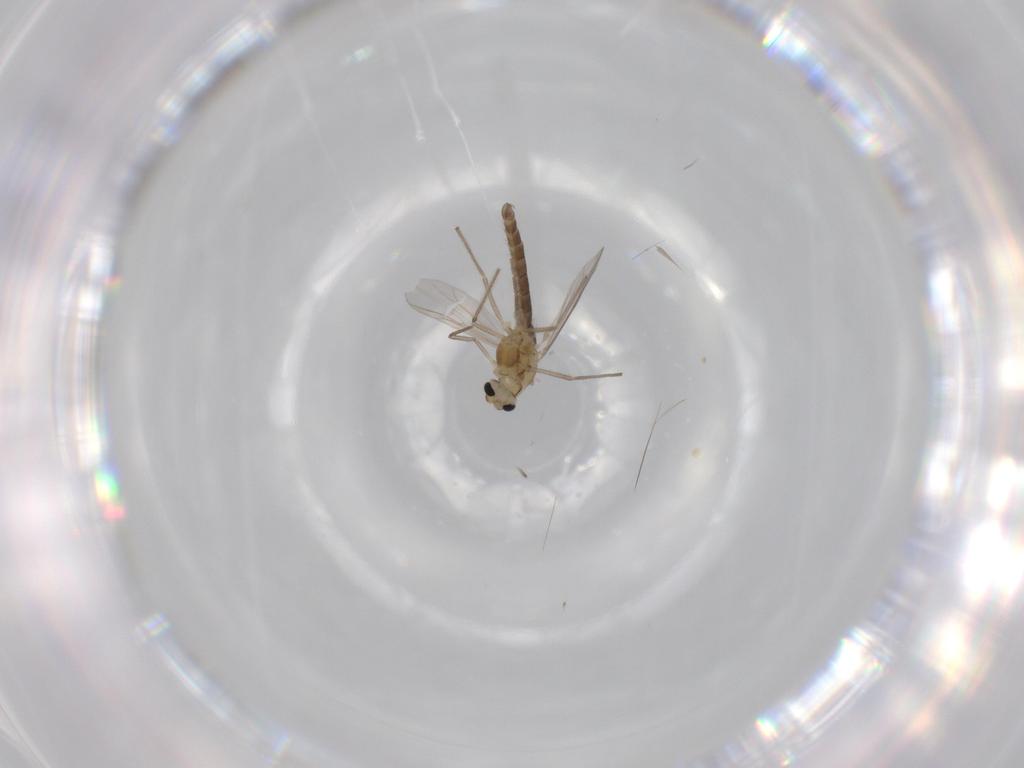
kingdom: Animalia
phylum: Arthropoda
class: Insecta
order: Diptera
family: Chironomidae
